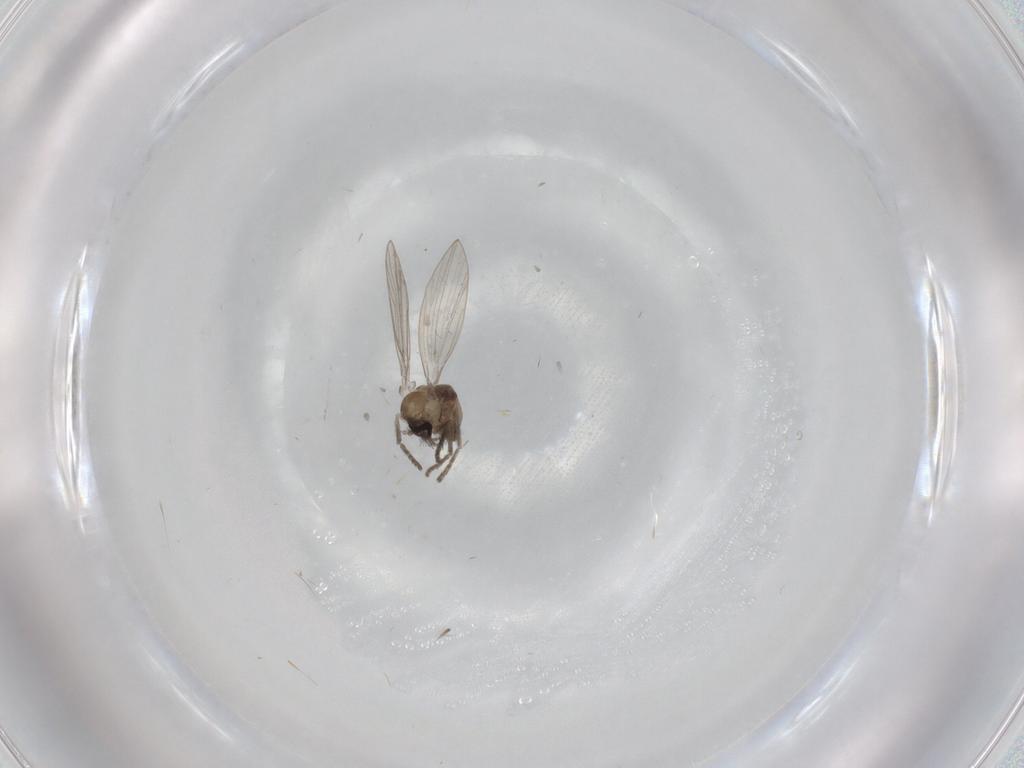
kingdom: Animalia
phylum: Arthropoda
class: Insecta
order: Diptera
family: Psychodidae
